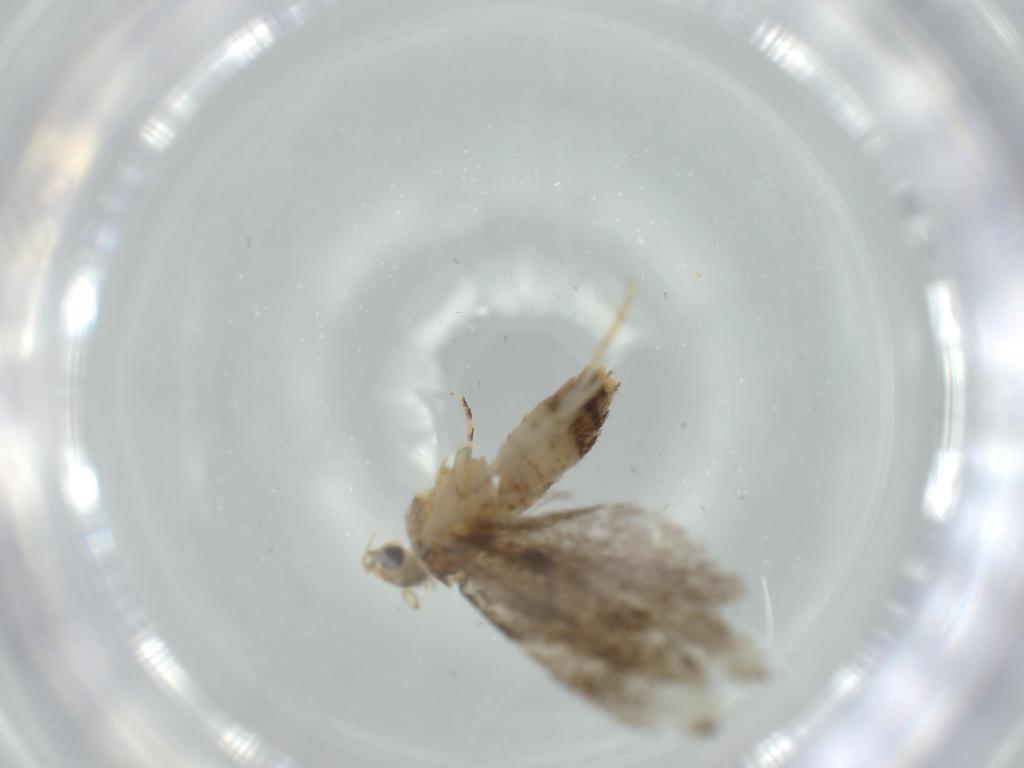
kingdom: Animalia
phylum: Arthropoda
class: Insecta
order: Lepidoptera
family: Tineidae
